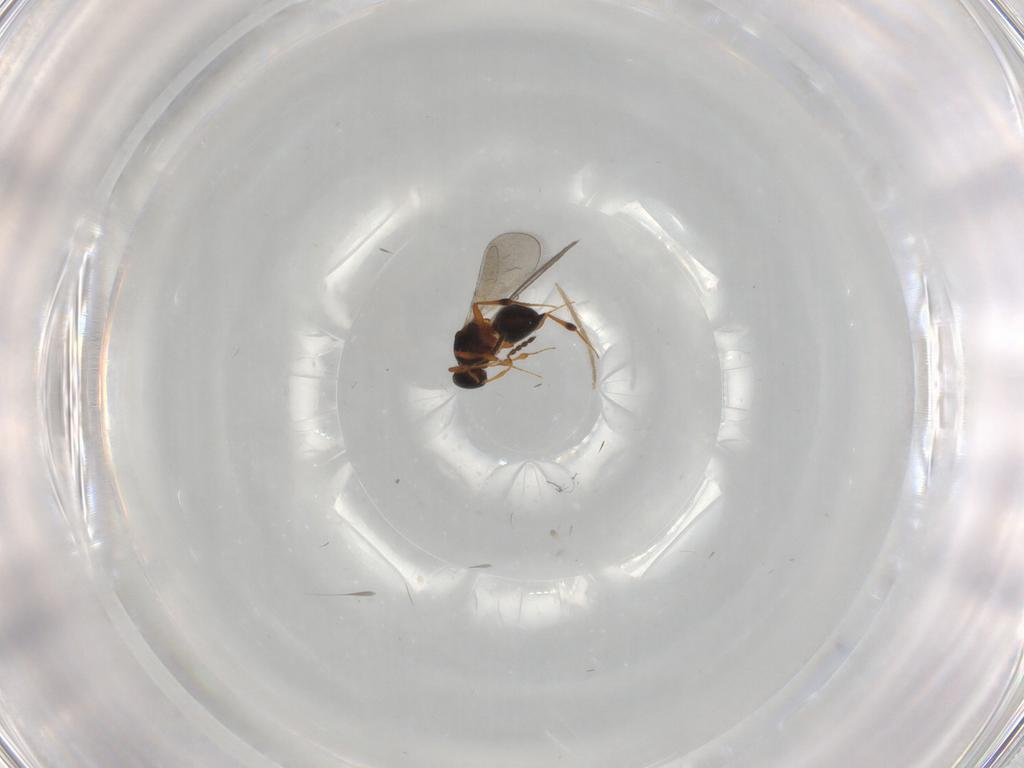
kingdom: Animalia
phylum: Arthropoda
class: Insecta
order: Hymenoptera
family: Platygastridae
